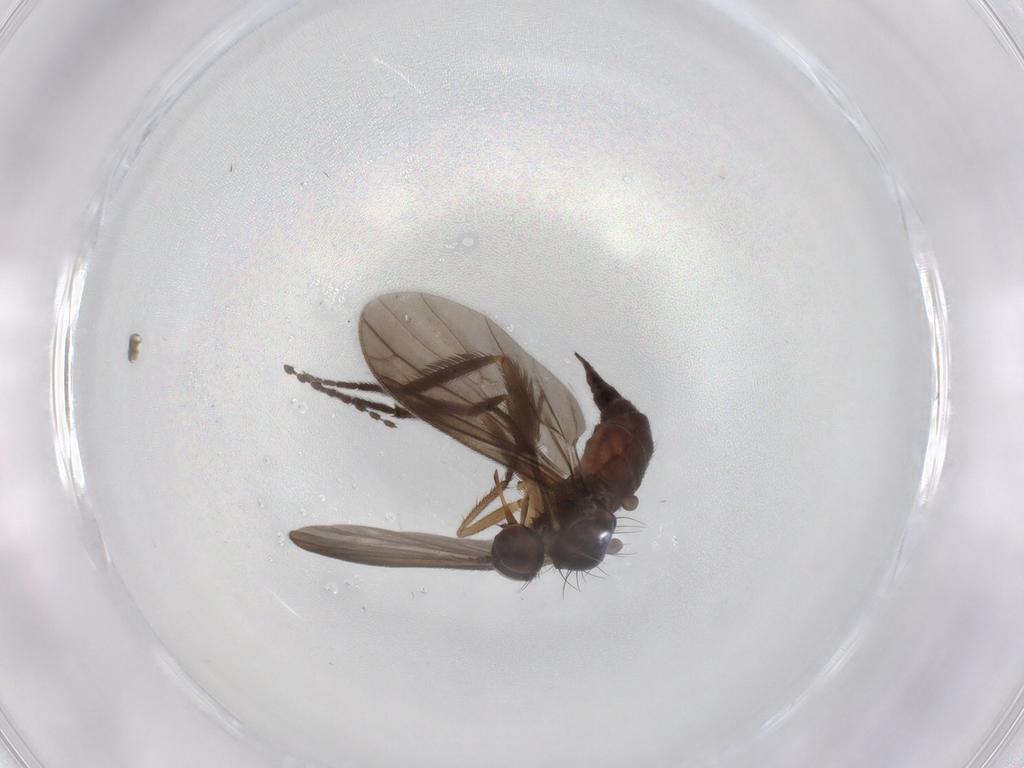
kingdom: Animalia
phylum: Arthropoda
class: Insecta
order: Diptera
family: Empididae
